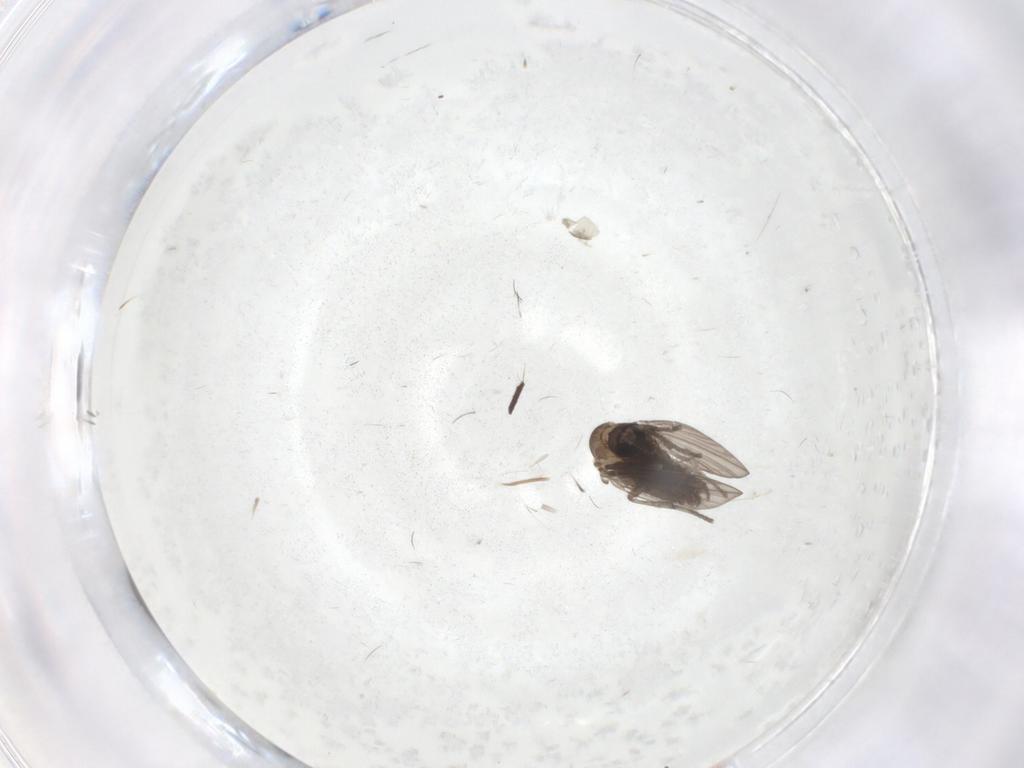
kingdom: Animalia
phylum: Arthropoda
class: Insecta
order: Diptera
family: Psychodidae
